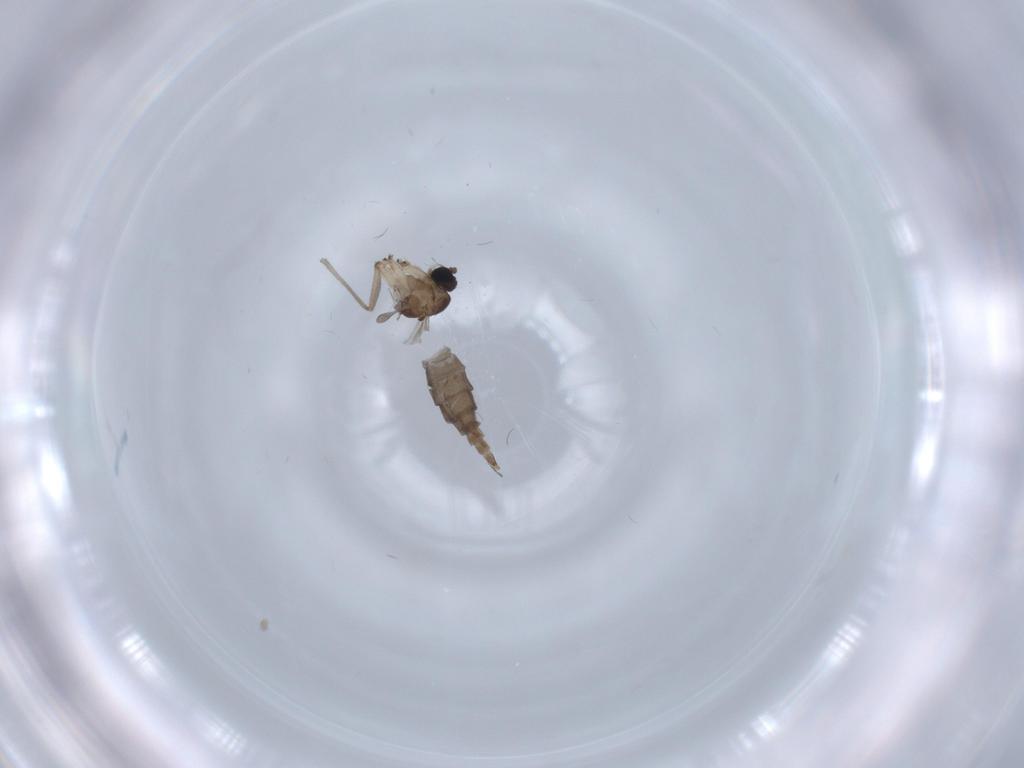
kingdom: Animalia
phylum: Arthropoda
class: Insecta
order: Diptera
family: Sciaridae
